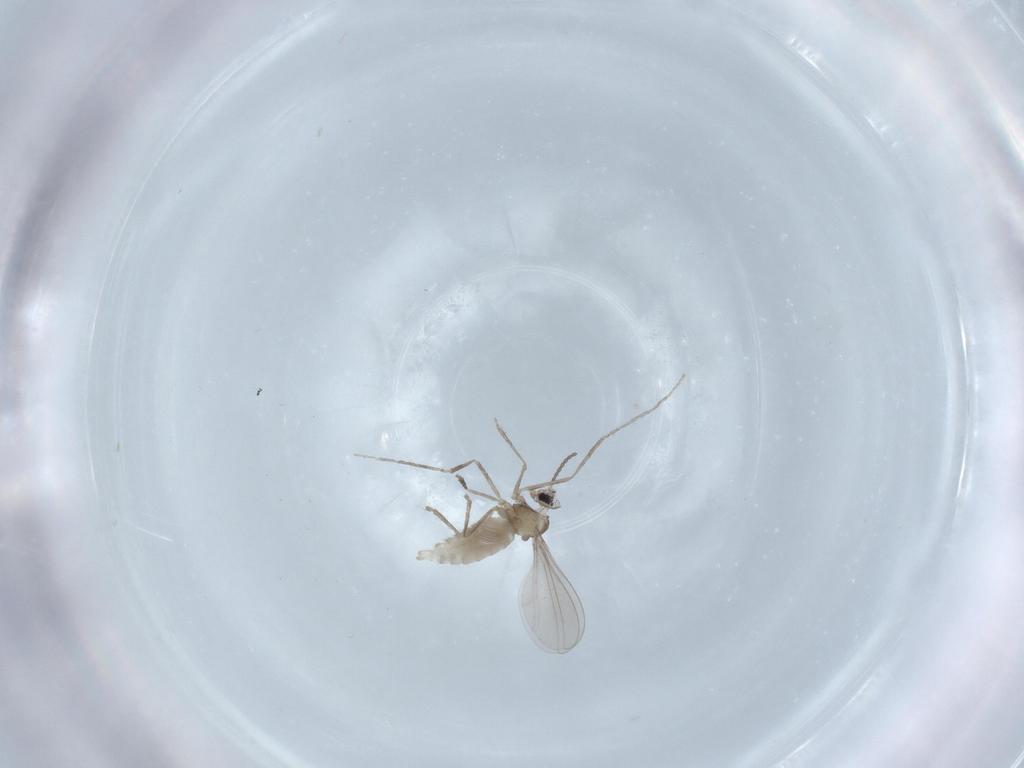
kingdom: Animalia
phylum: Arthropoda
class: Insecta
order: Diptera
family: Cecidomyiidae
